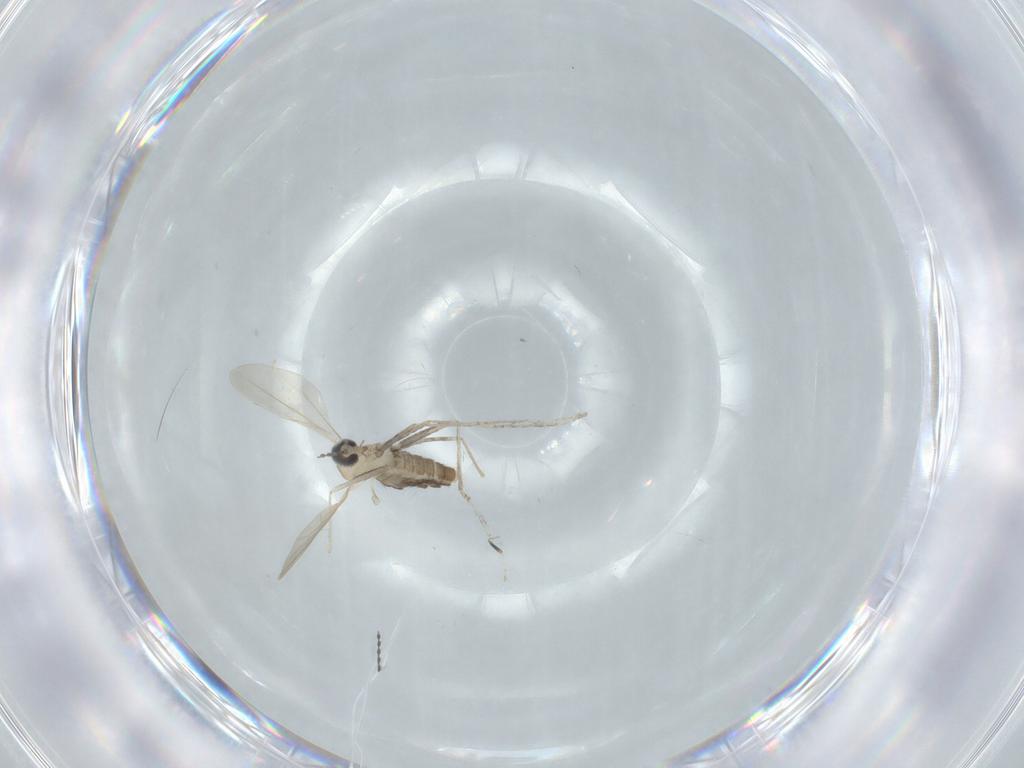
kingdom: Animalia
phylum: Arthropoda
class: Insecta
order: Diptera
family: Cecidomyiidae
